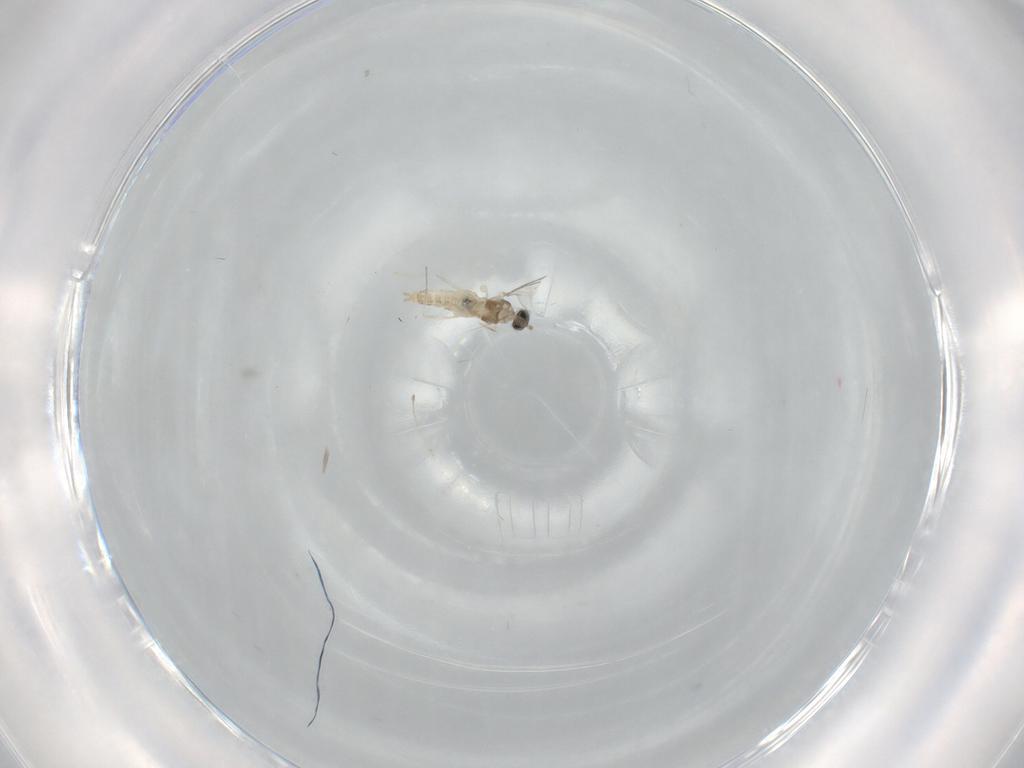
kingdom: Animalia
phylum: Arthropoda
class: Insecta
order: Diptera
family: Cecidomyiidae
